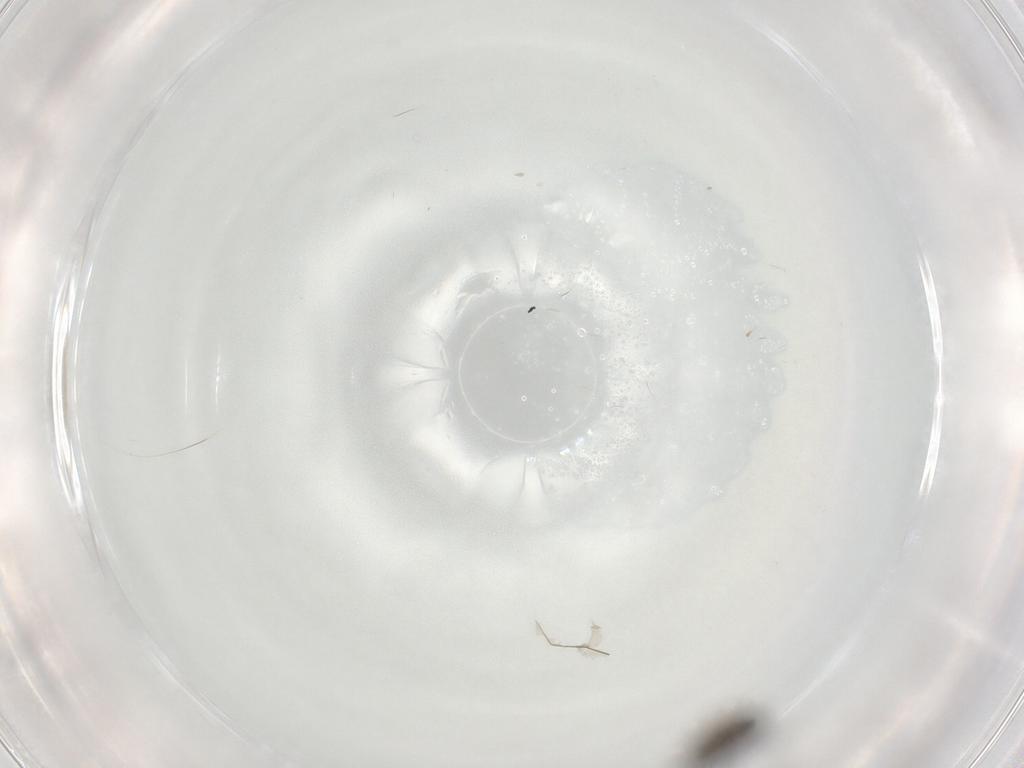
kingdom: Animalia
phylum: Arthropoda
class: Insecta
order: Diptera
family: Chironomidae
